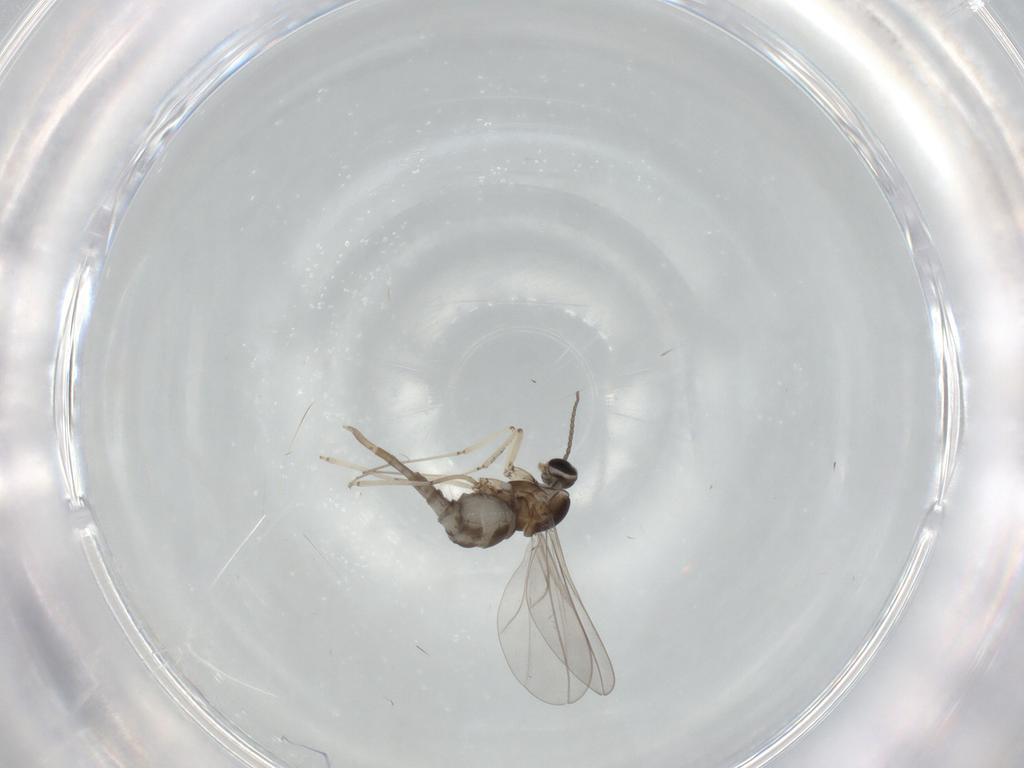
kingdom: Animalia
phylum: Arthropoda
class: Insecta
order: Diptera
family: Cecidomyiidae
